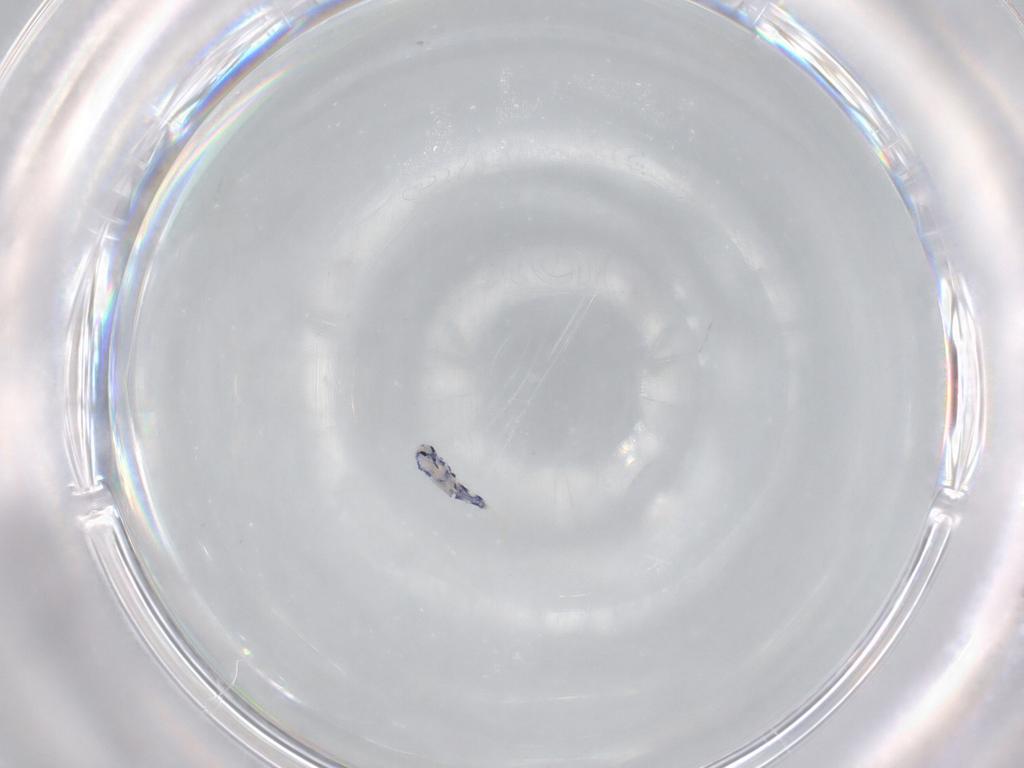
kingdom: Animalia
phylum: Arthropoda
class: Collembola
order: Entomobryomorpha
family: Entomobryidae
